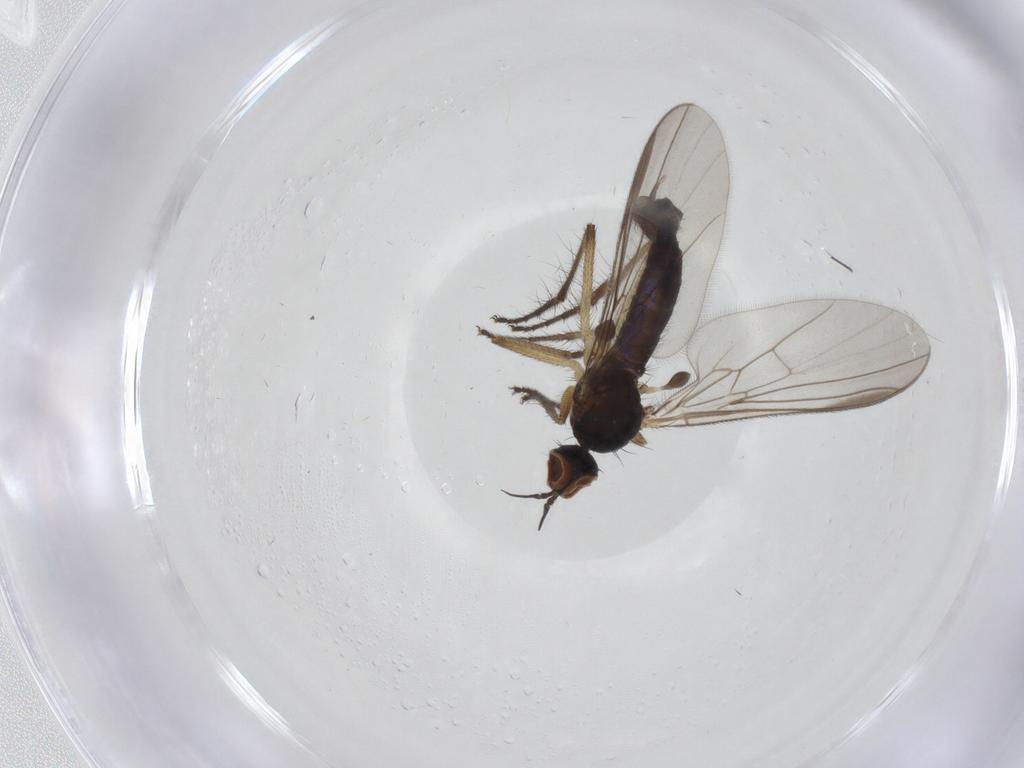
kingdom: Animalia
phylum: Arthropoda
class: Insecta
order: Diptera
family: Empididae
